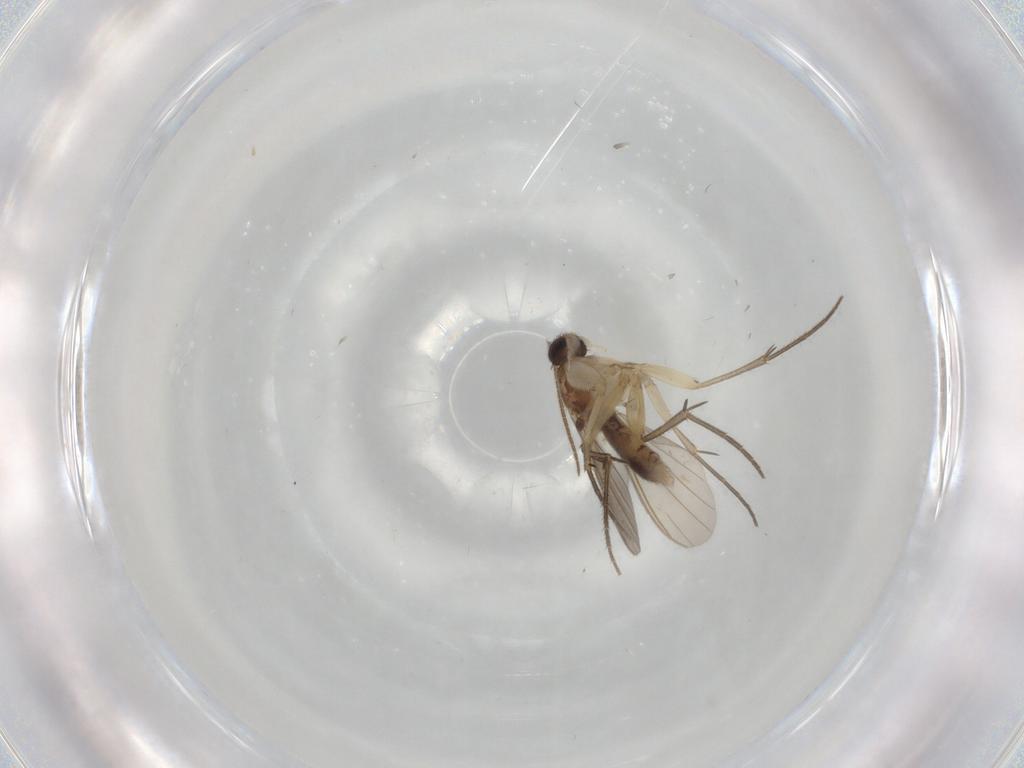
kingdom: Animalia
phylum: Arthropoda
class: Insecta
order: Diptera
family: Mycetophilidae
